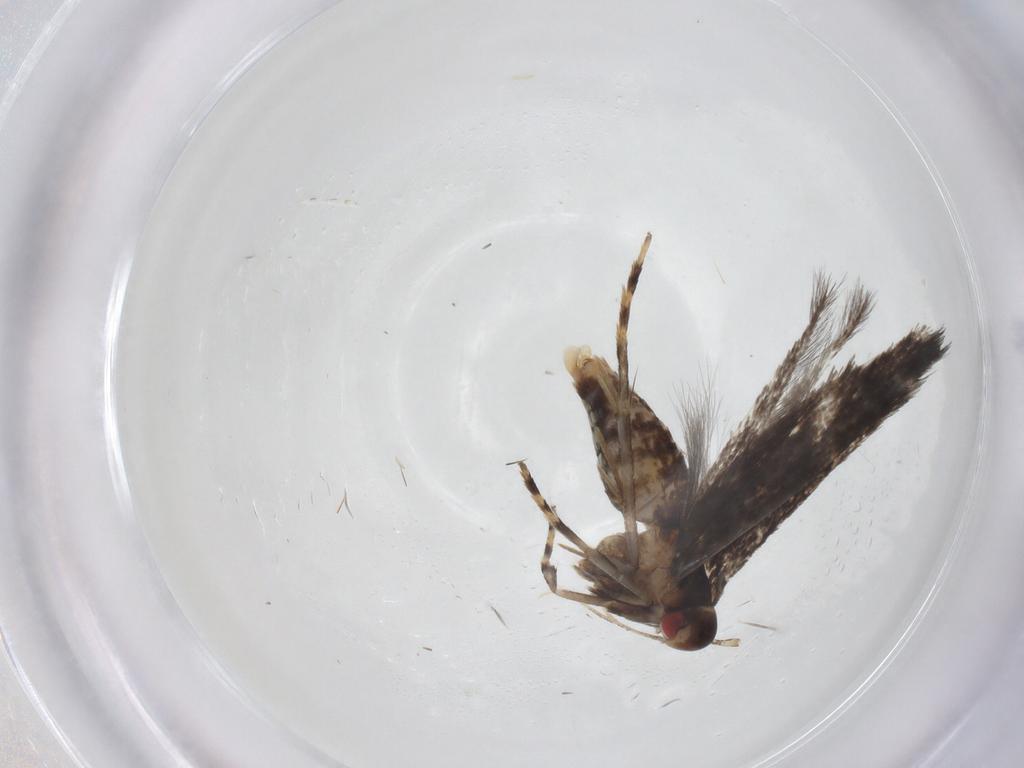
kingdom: Animalia
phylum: Arthropoda
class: Insecta
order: Lepidoptera
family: Cosmopterigidae
